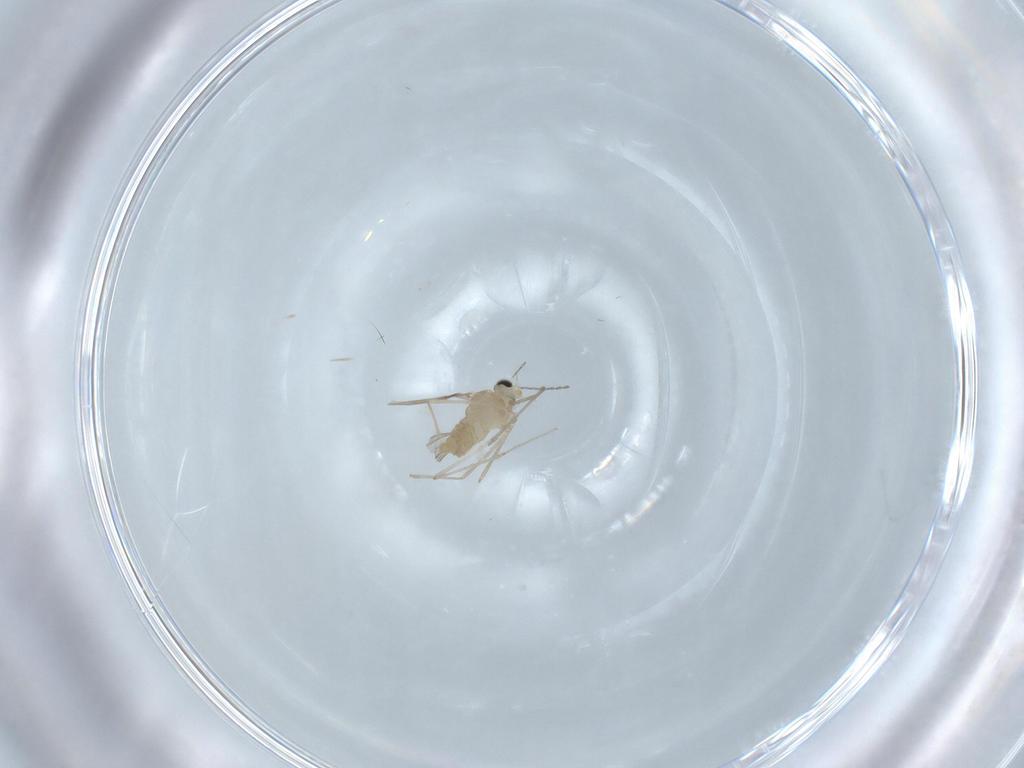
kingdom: Animalia
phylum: Arthropoda
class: Insecta
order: Diptera
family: Cecidomyiidae
